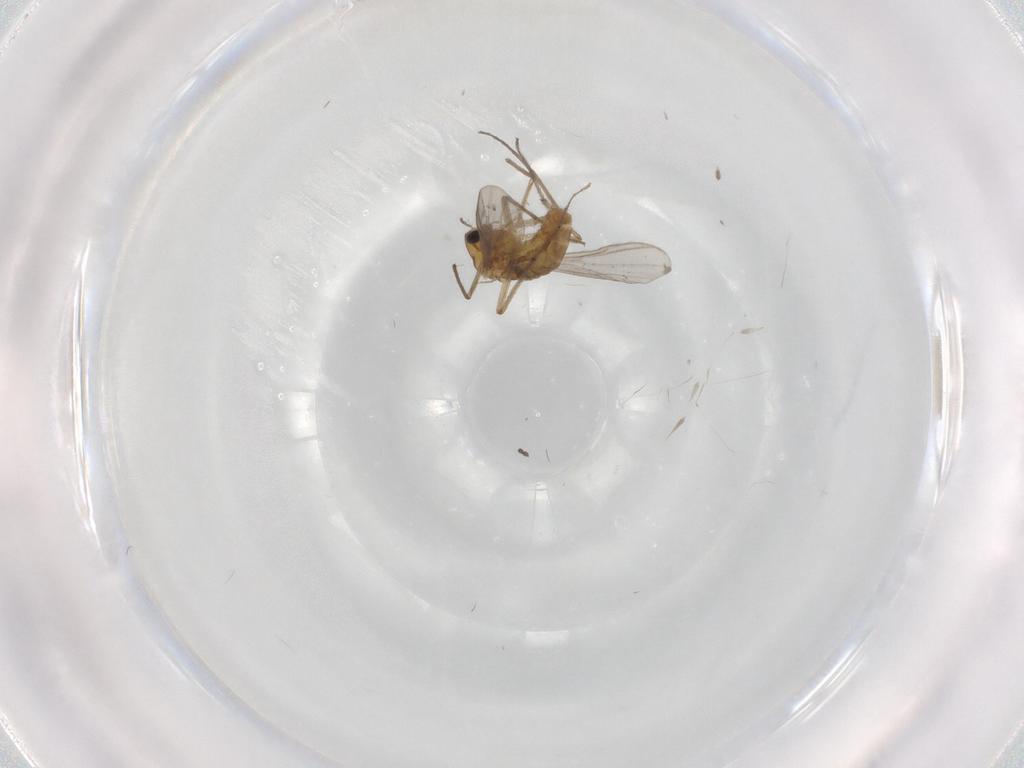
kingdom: Animalia
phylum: Arthropoda
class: Insecta
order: Diptera
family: Chironomidae
